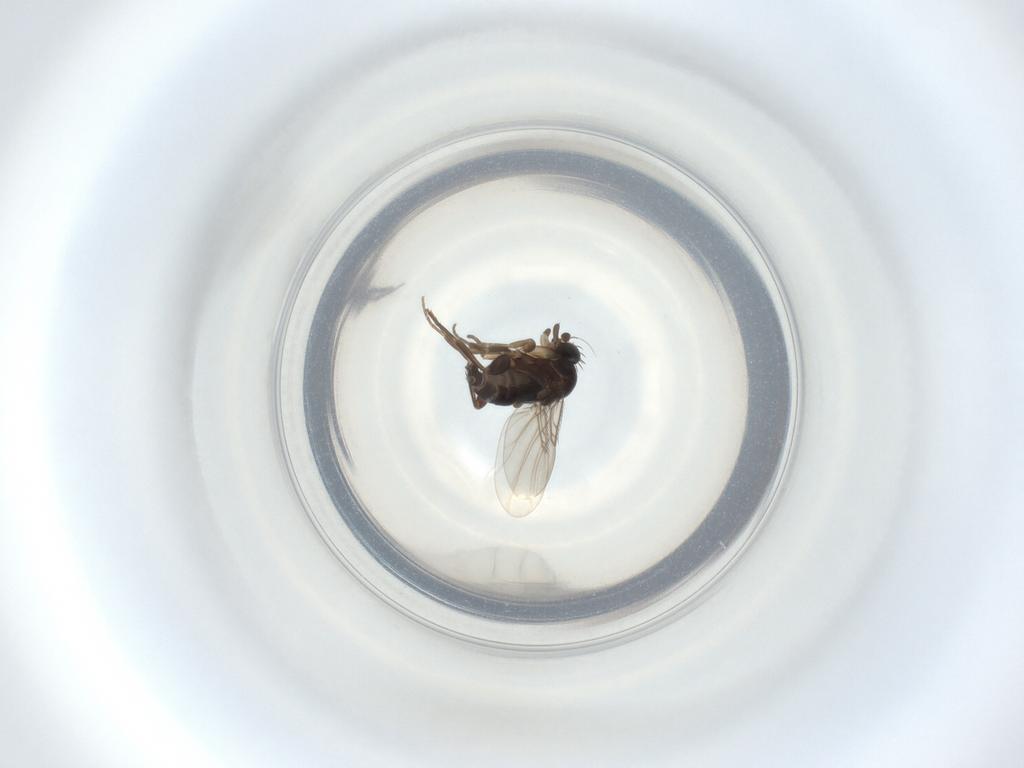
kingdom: Animalia
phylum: Arthropoda
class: Insecta
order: Diptera
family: Phoridae
